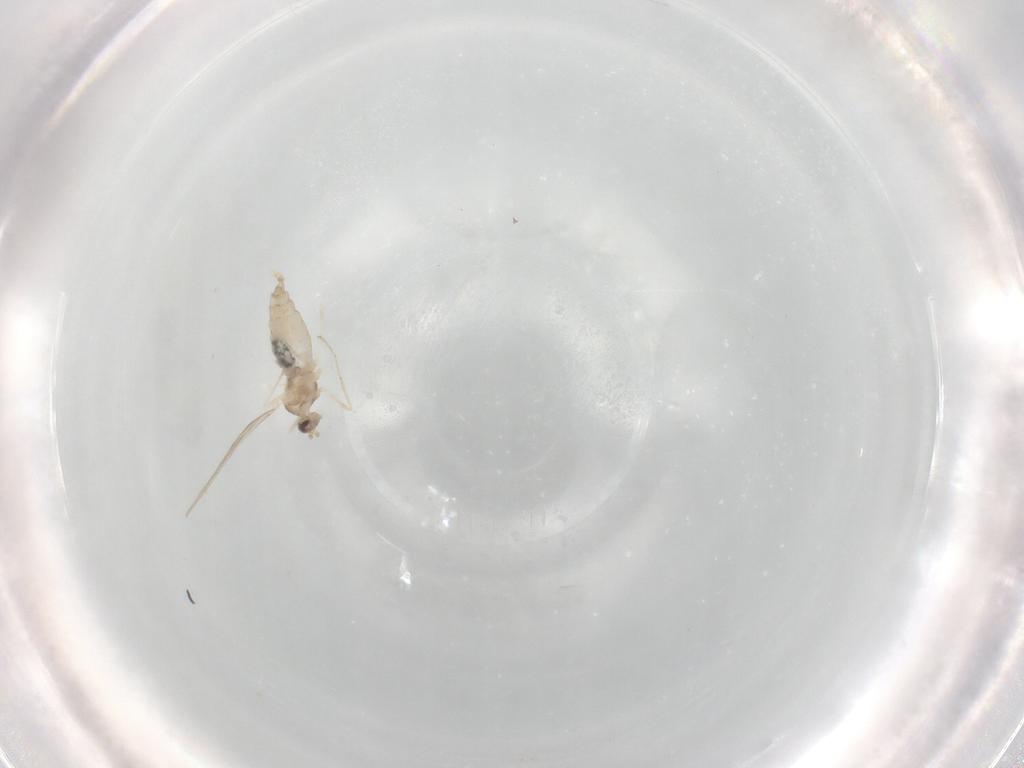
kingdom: Animalia
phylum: Arthropoda
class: Insecta
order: Diptera
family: Cecidomyiidae
